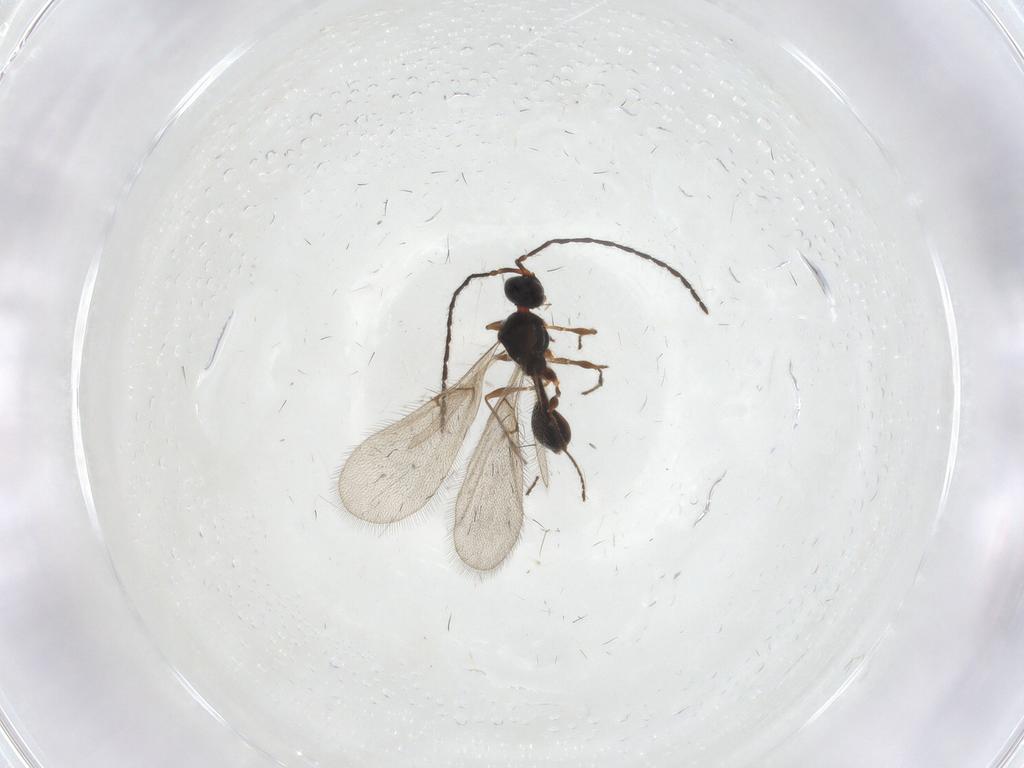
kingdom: Animalia
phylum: Arthropoda
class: Insecta
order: Hymenoptera
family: Diapriidae
